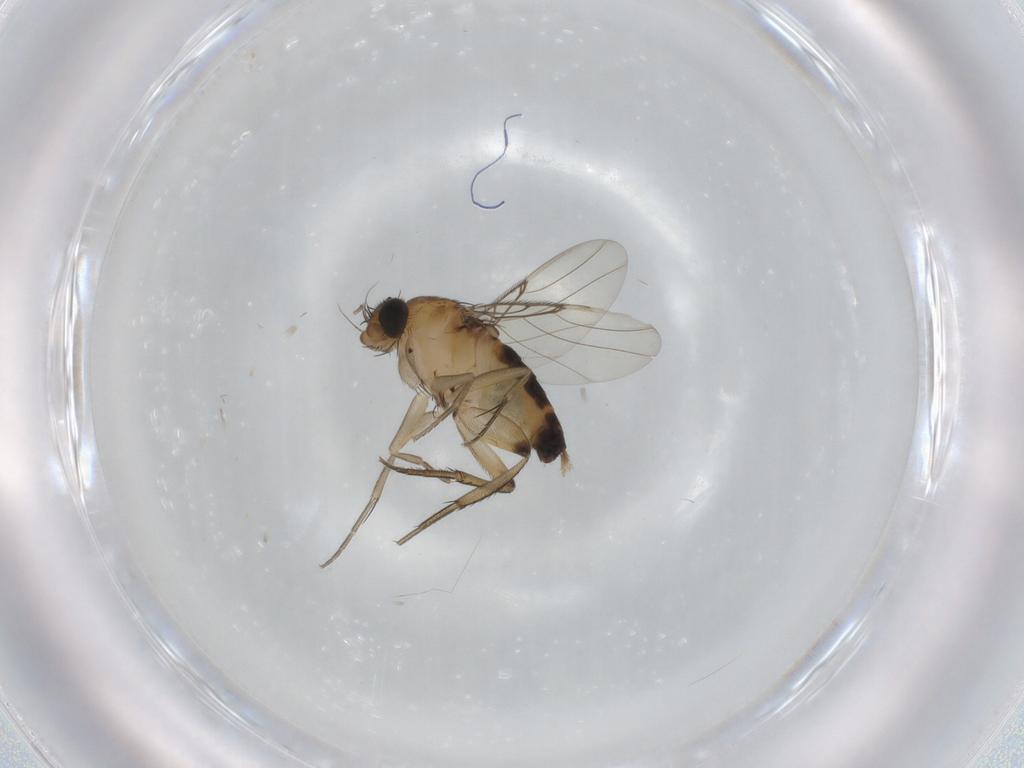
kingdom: Animalia
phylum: Arthropoda
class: Insecta
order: Diptera
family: Phoridae
